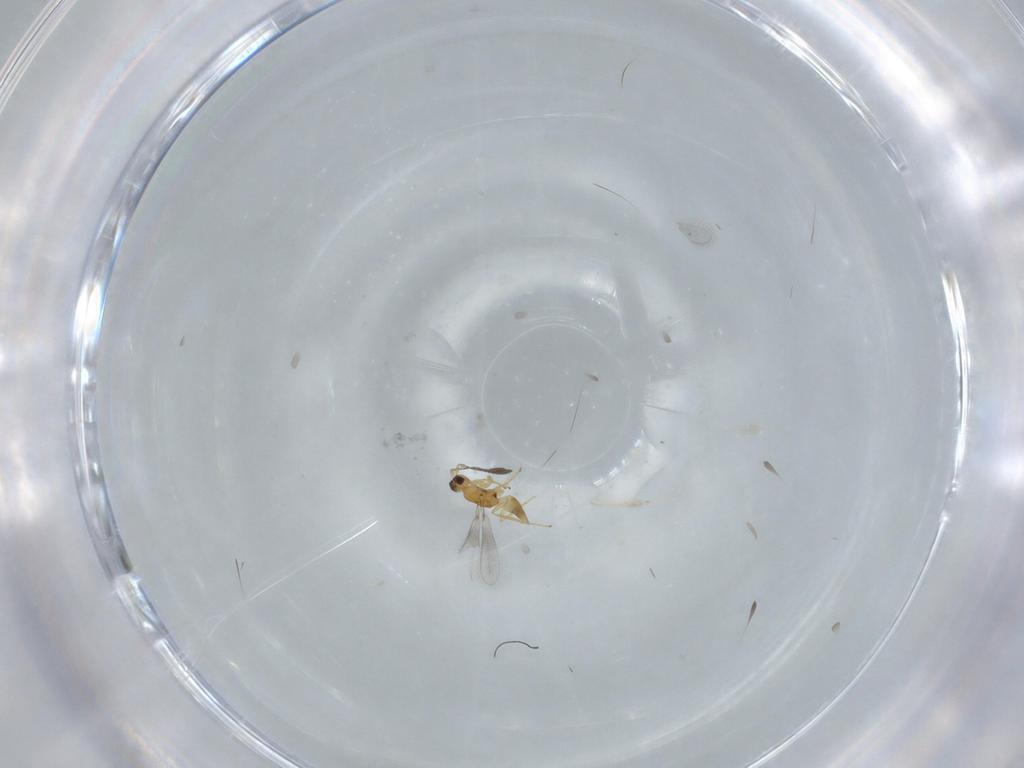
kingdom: Animalia
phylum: Arthropoda
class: Insecta
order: Hymenoptera
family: Mymaridae
